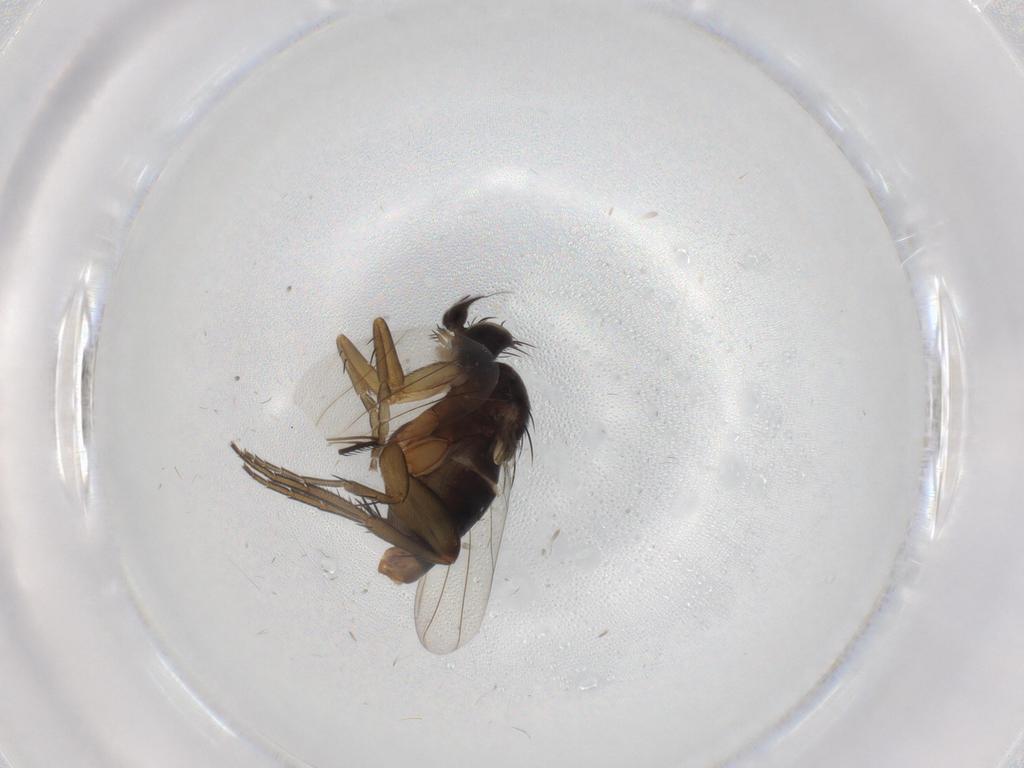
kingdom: Animalia
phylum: Arthropoda
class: Insecta
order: Diptera
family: Phoridae
